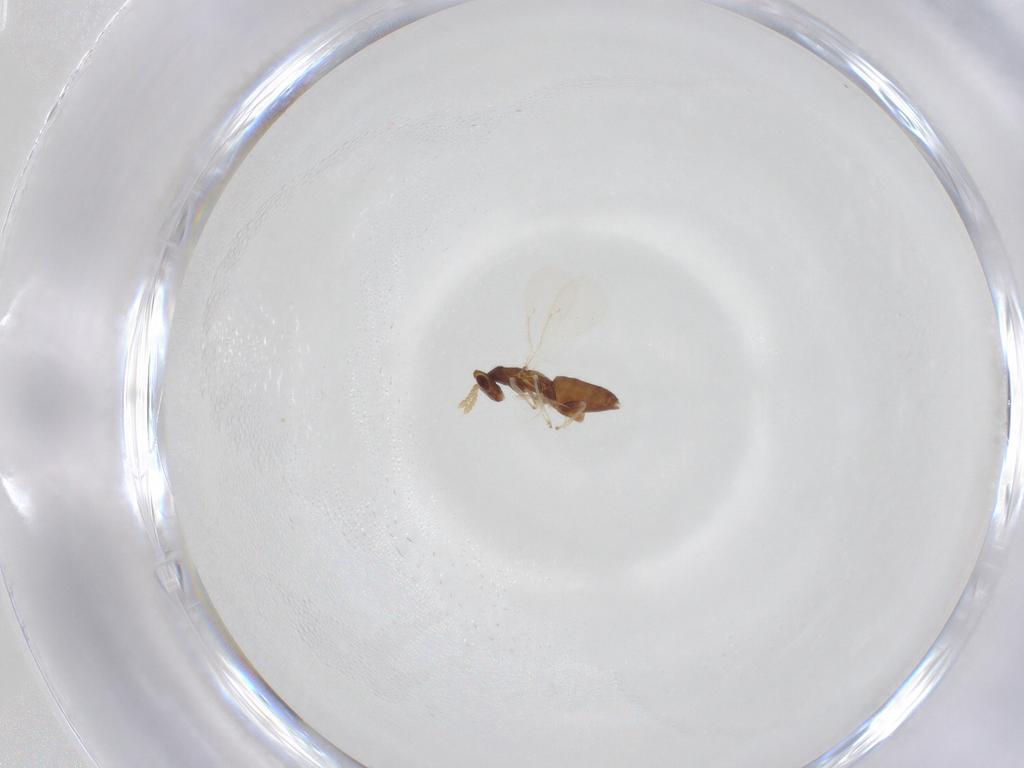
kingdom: Animalia
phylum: Arthropoda
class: Insecta
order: Hymenoptera
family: Eulophidae
